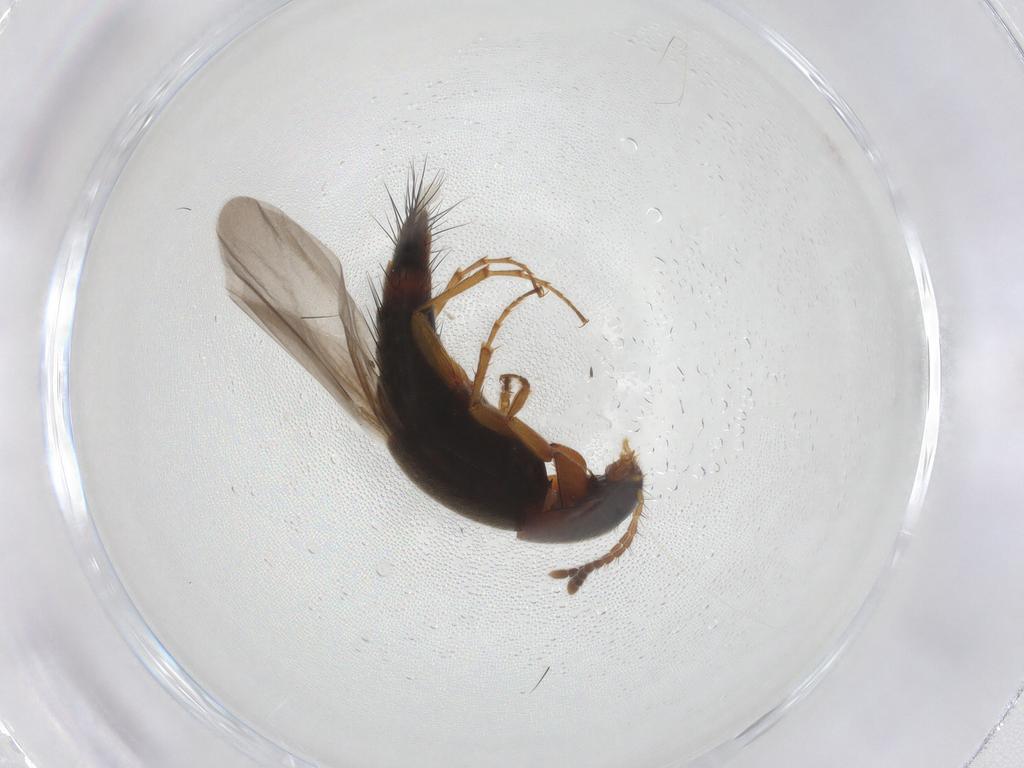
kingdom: Animalia
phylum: Arthropoda
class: Insecta
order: Coleoptera
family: Staphylinidae
